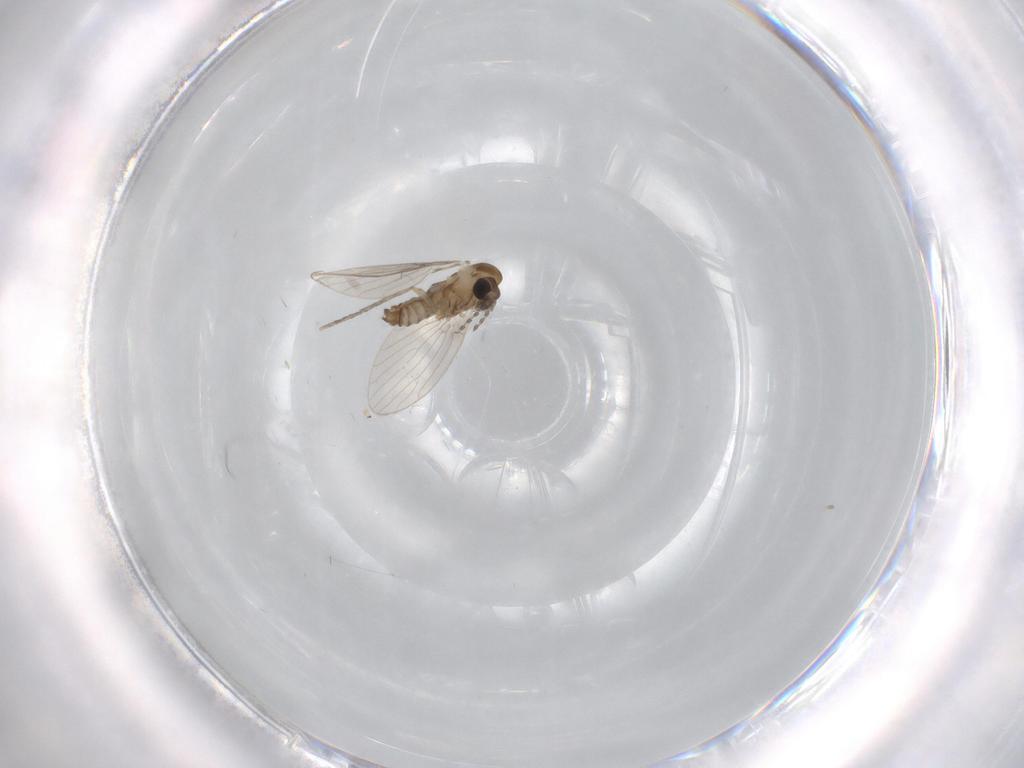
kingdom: Animalia
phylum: Arthropoda
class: Insecta
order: Diptera
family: Psychodidae
